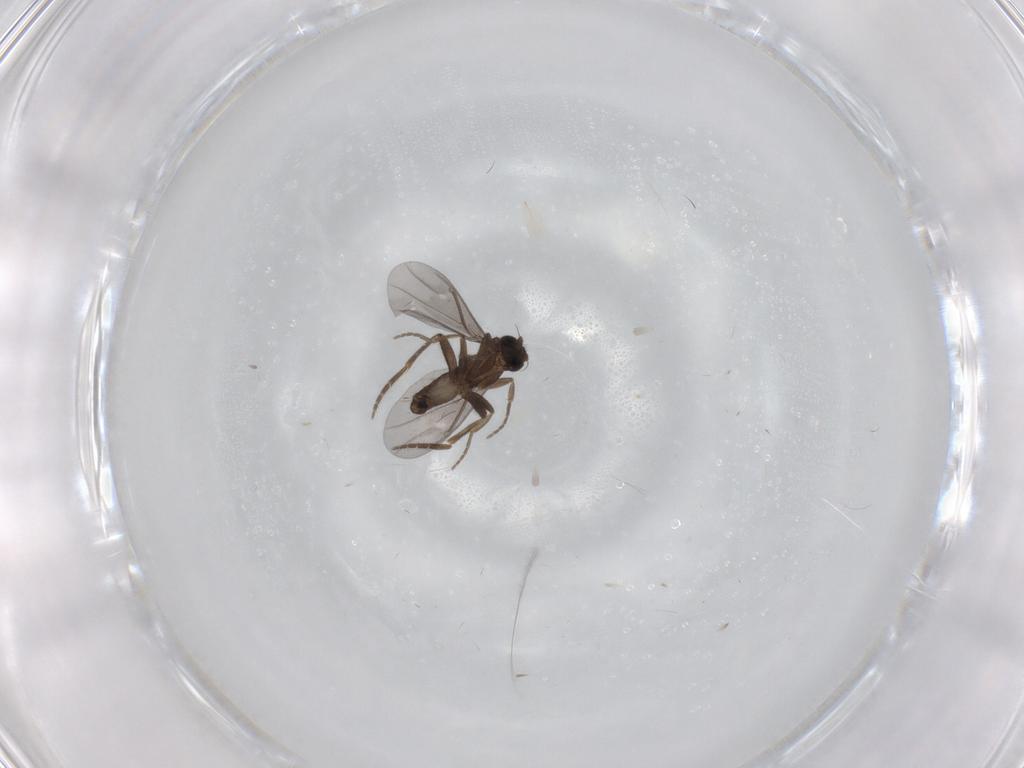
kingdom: Animalia
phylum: Arthropoda
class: Insecta
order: Diptera
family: Phoridae
